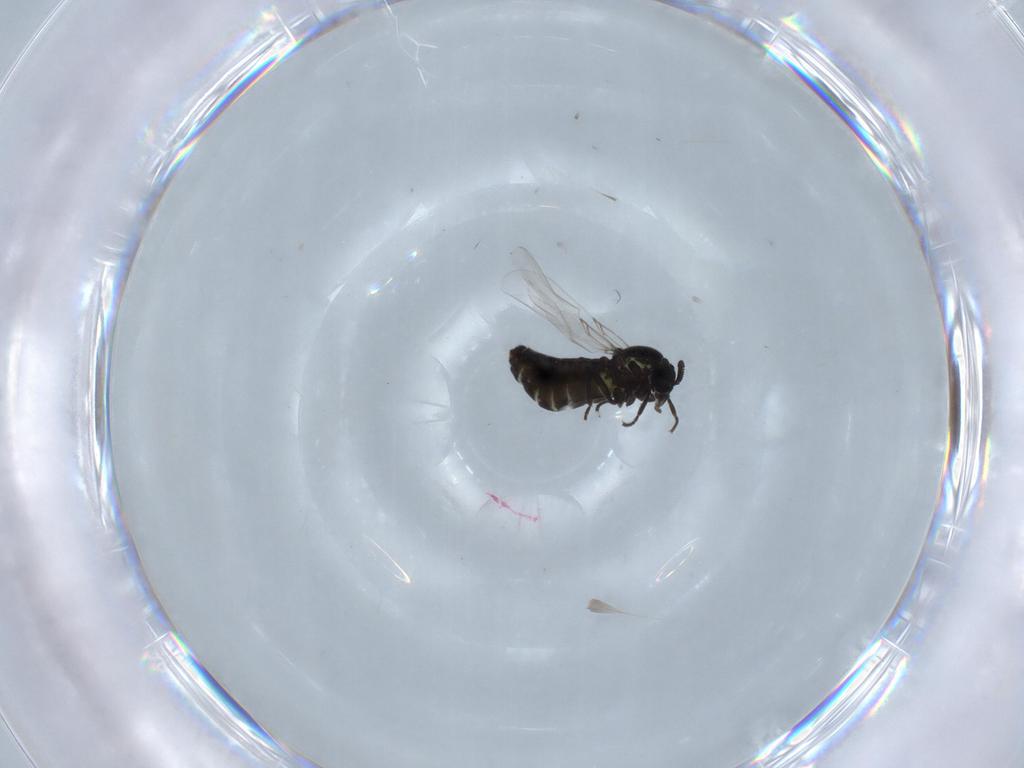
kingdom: Animalia
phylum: Arthropoda
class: Insecta
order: Diptera
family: Scatopsidae
